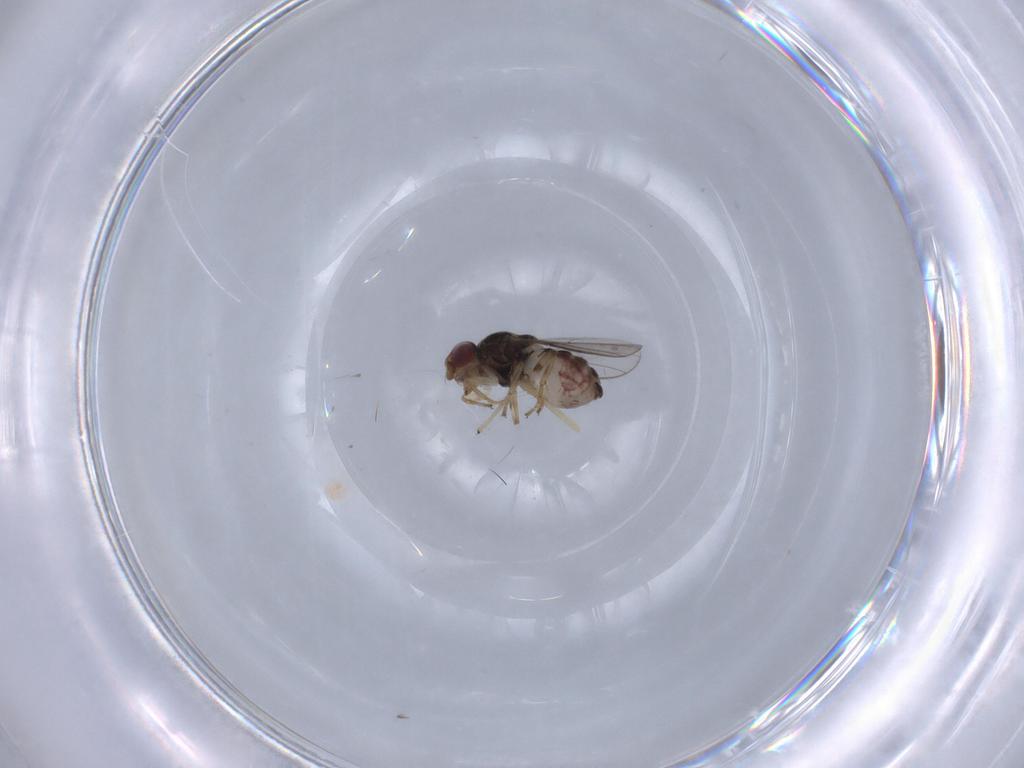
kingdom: Animalia
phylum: Arthropoda
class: Insecta
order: Diptera
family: Chloropidae
